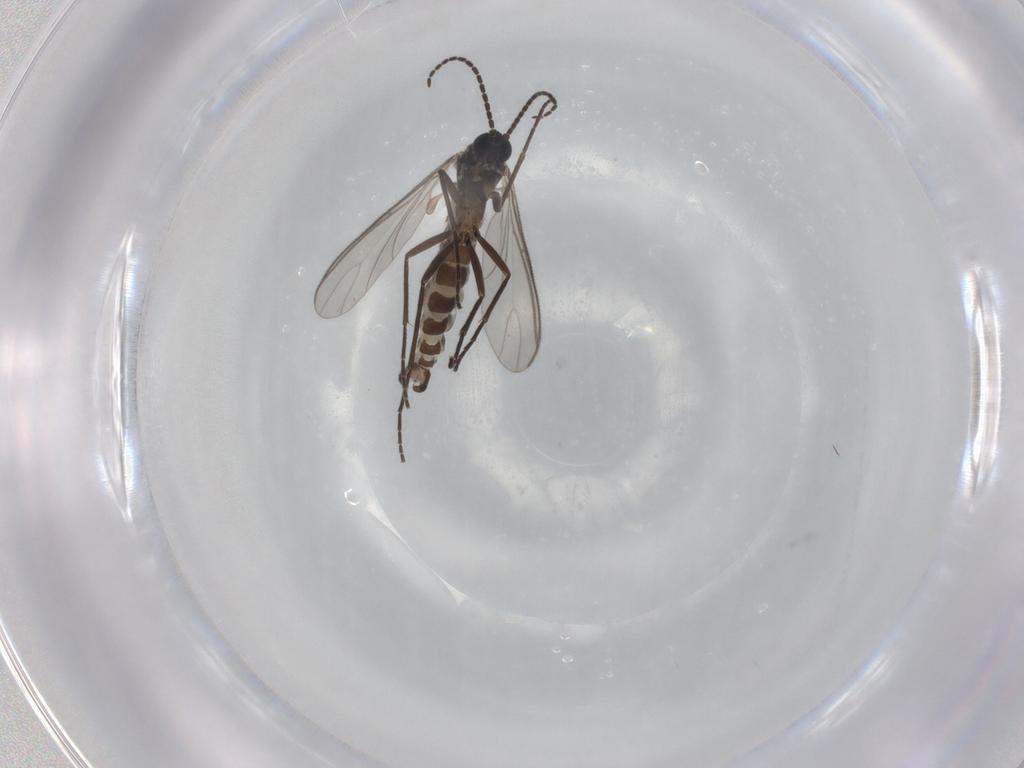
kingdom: Animalia
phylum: Arthropoda
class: Insecta
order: Diptera
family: Sciaridae
